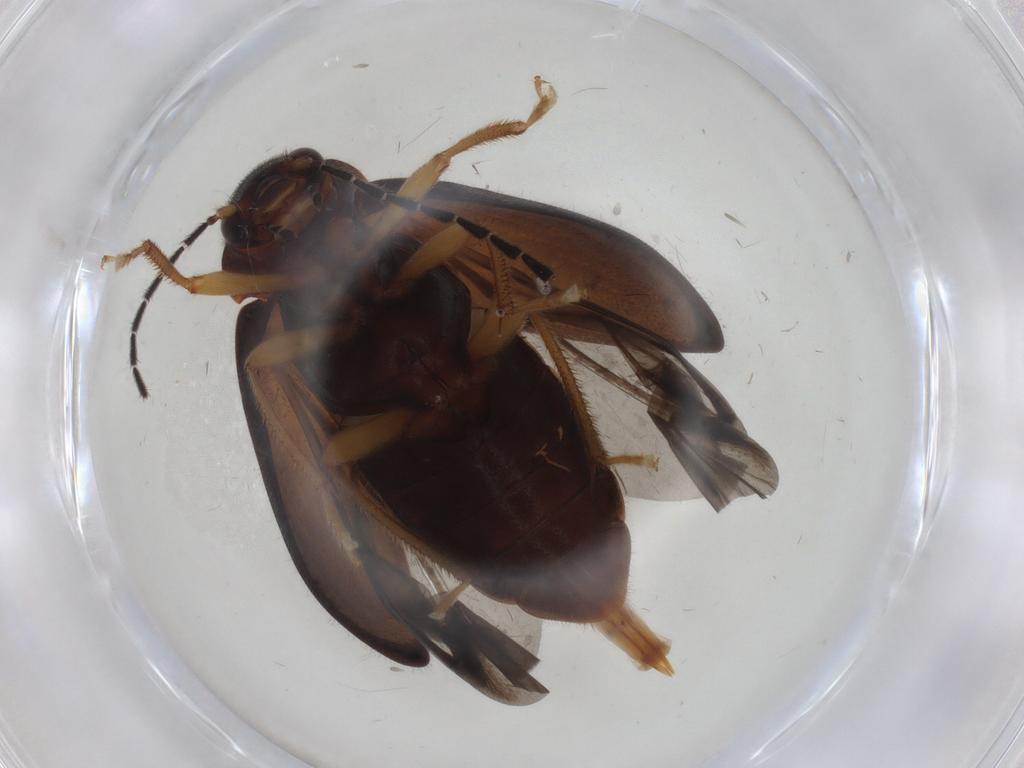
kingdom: Animalia
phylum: Arthropoda
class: Insecta
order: Coleoptera
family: Staphylinidae
